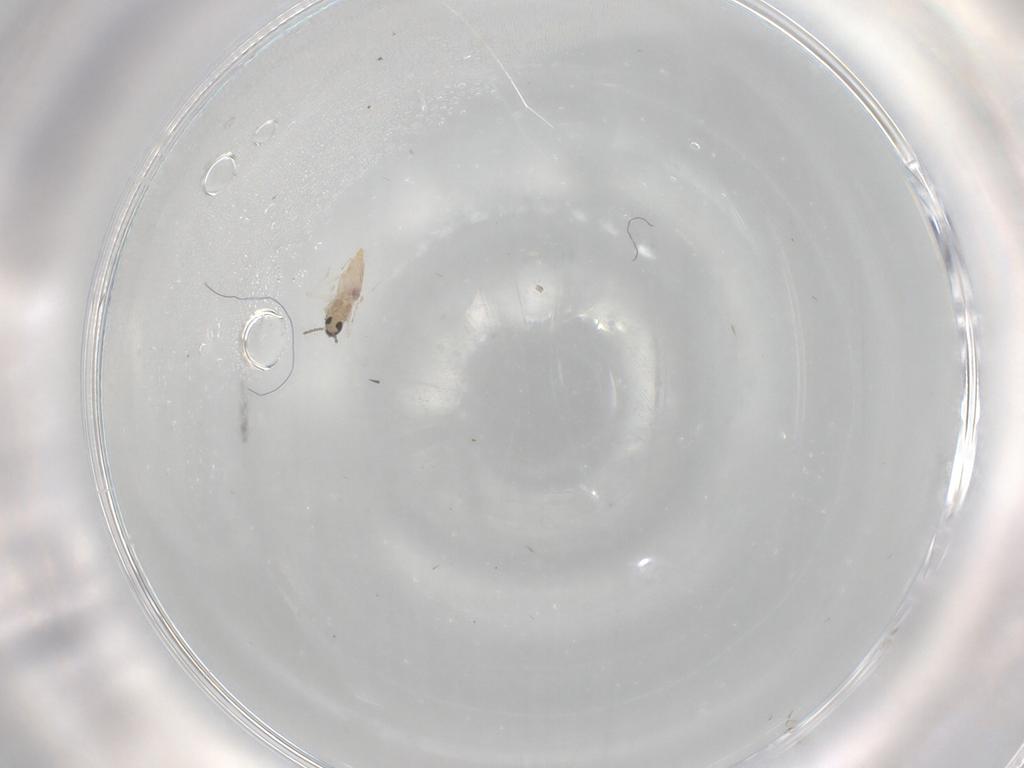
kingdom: Animalia
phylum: Arthropoda
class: Insecta
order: Diptera
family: Cecidomyiidae
